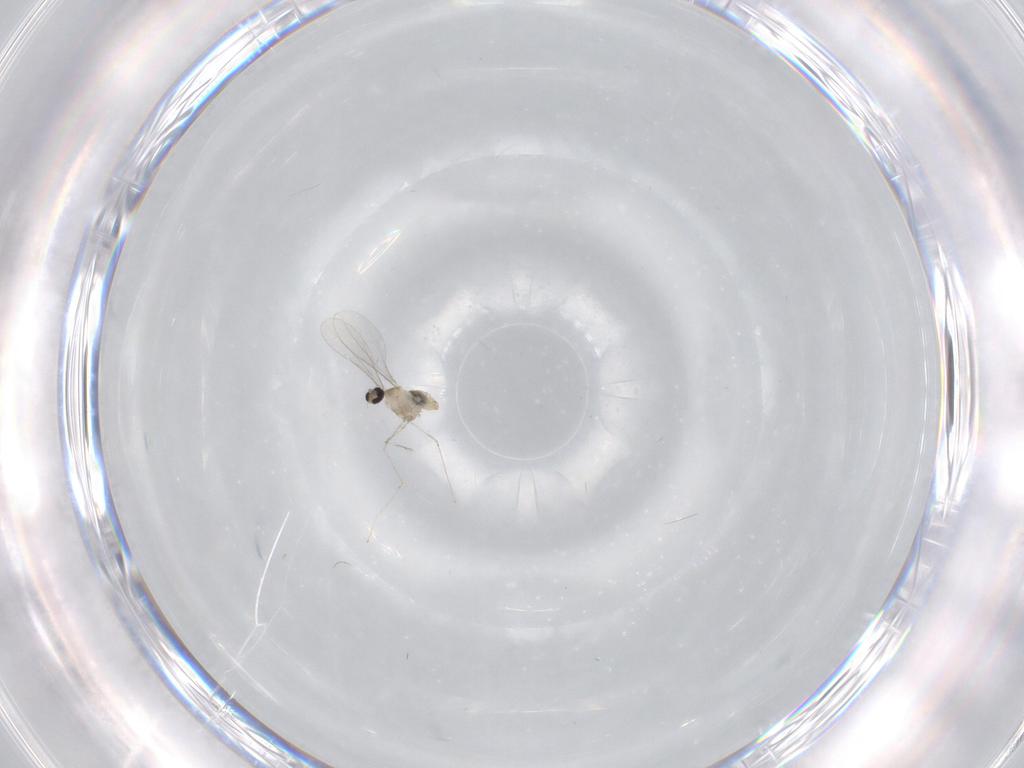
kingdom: Animalia
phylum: Arthropoda
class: Insecta
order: Diptera
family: Cecidomyiidae
